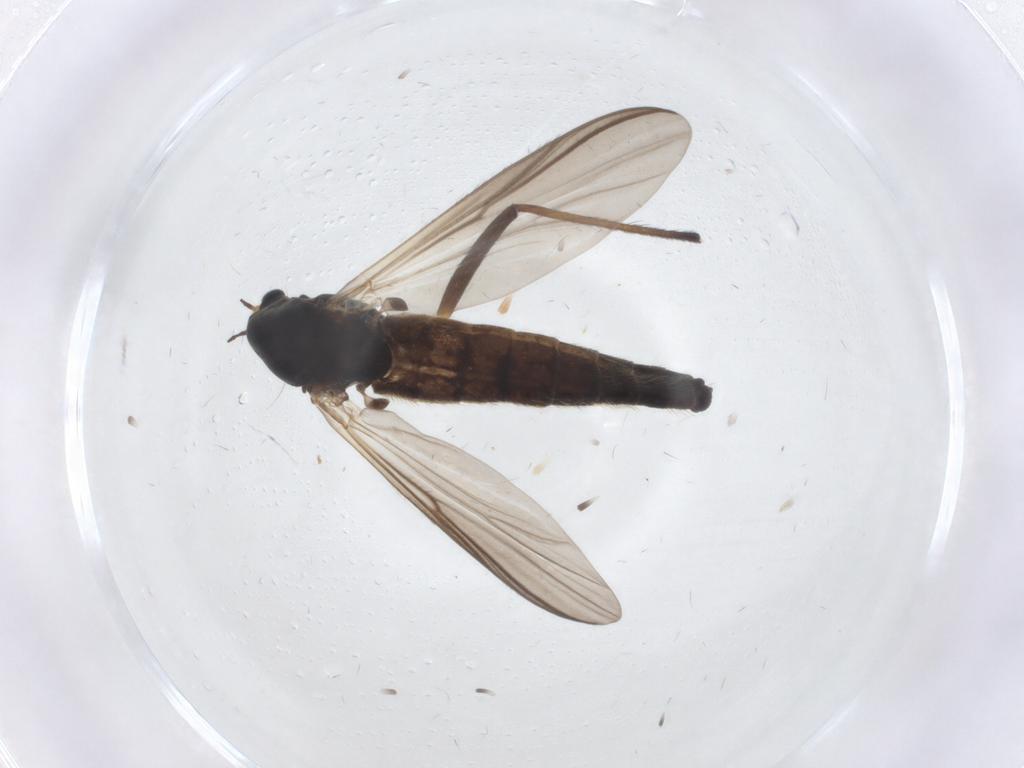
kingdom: Animalia
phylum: Arthropoda
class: Insecta
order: Diptera
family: Chironomidae
